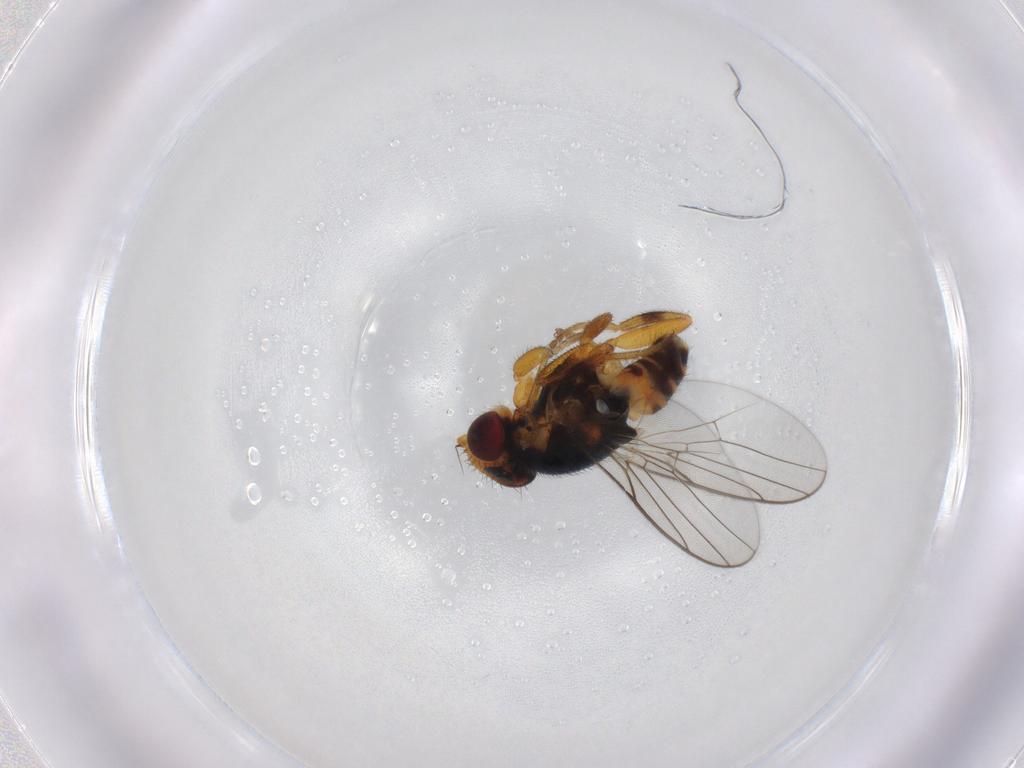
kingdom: Animalia
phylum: Arthropoda
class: Insecta
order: Diptera
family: Chloropidae
